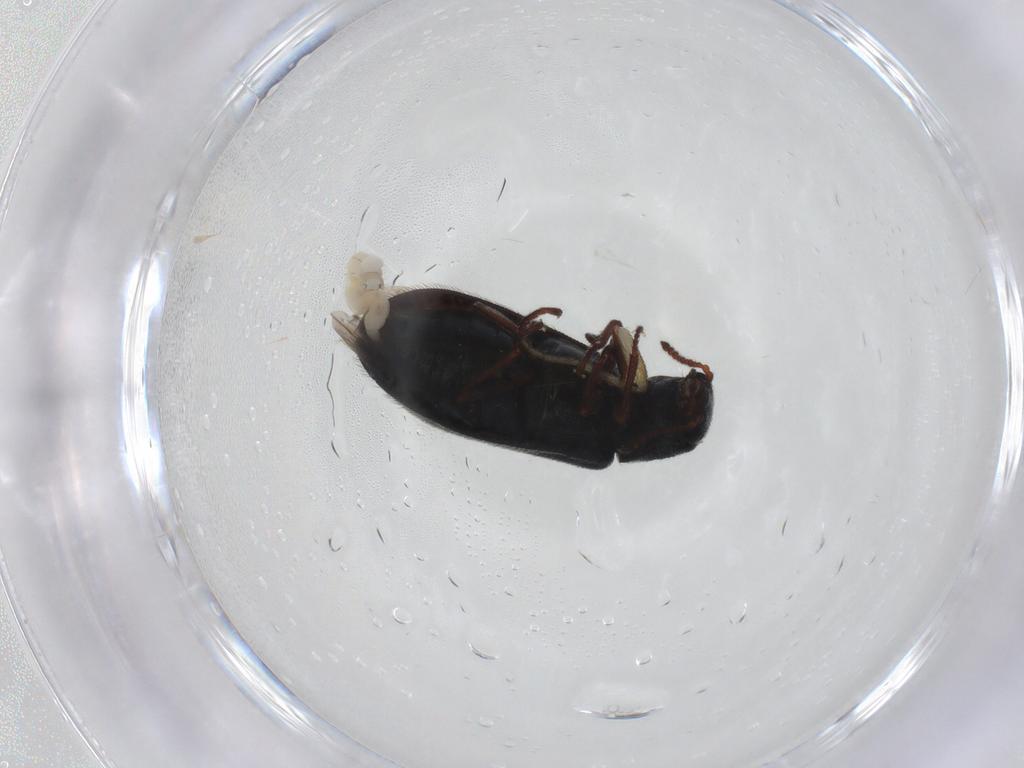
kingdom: Animalia
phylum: Arthropoda
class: Insecta
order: Coleoptera
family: Melyridae
